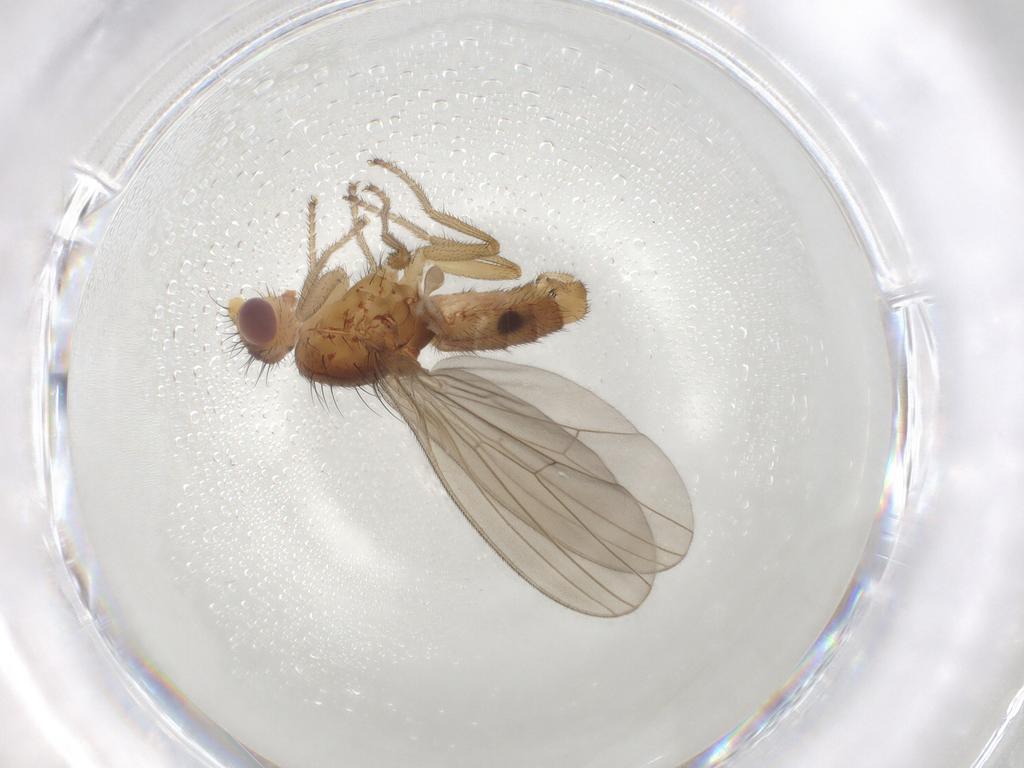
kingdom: Animalia
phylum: Arthropoda
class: Insecta
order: Diptera
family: Natalimyzidae
